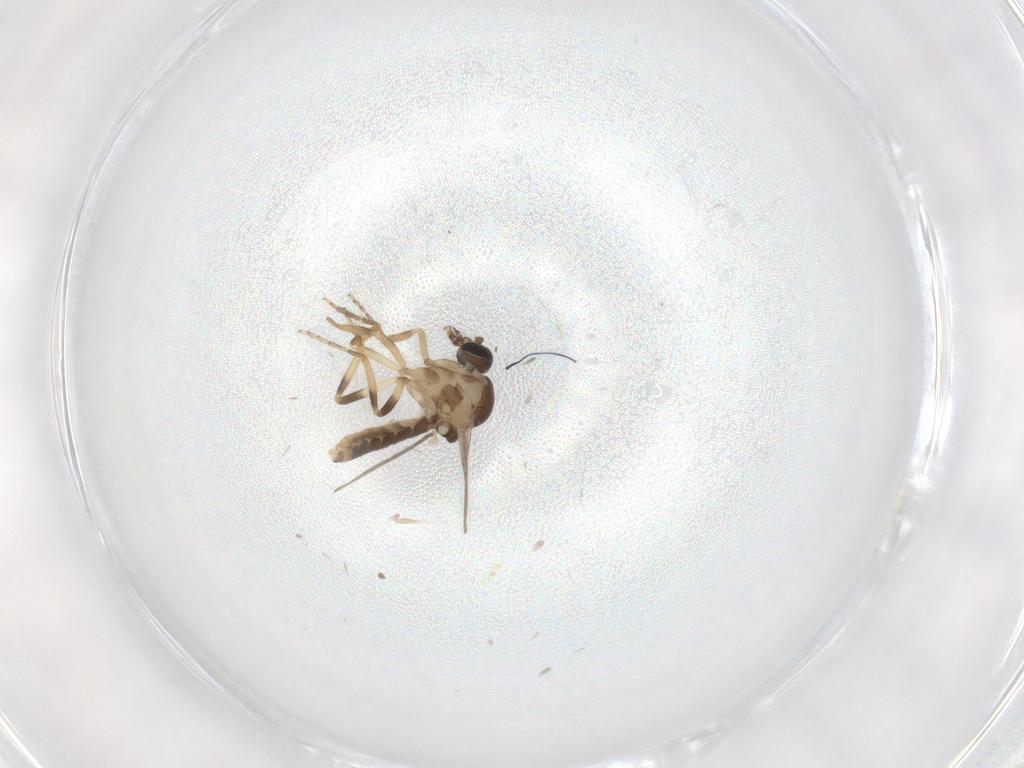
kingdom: Animalia
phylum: Arthropoda
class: Insecta
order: Diptera
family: Ceratopogonidae
